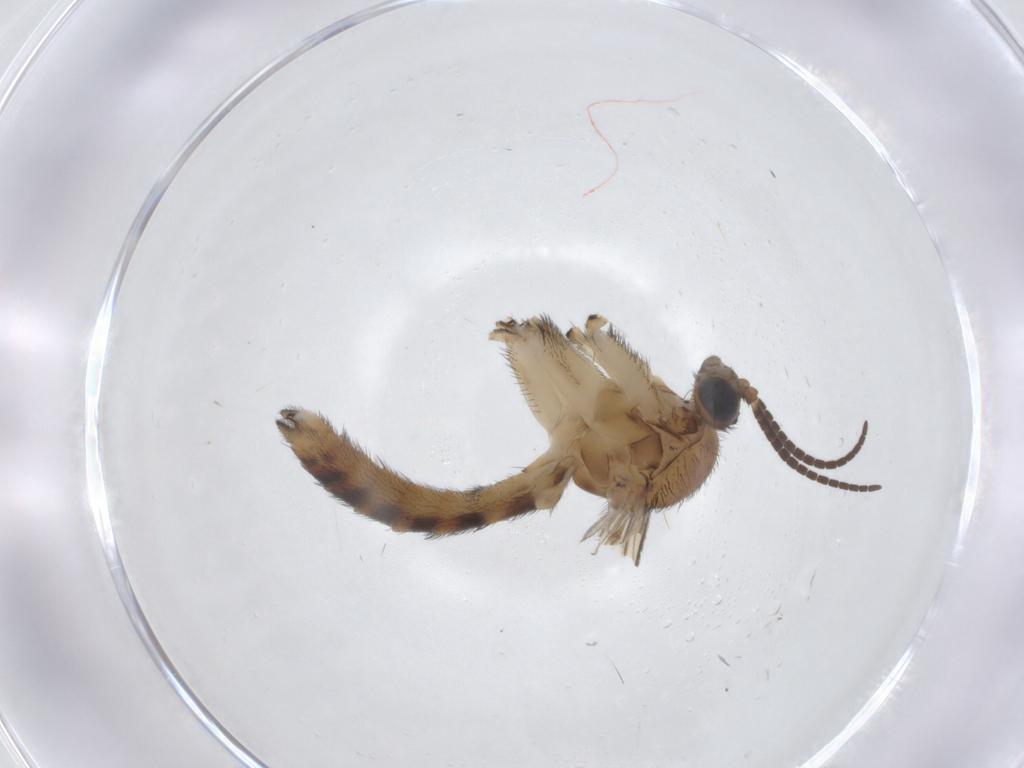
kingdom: Animalia
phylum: Arthropoda
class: Insecta
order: Diptera
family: Keroplatidae
